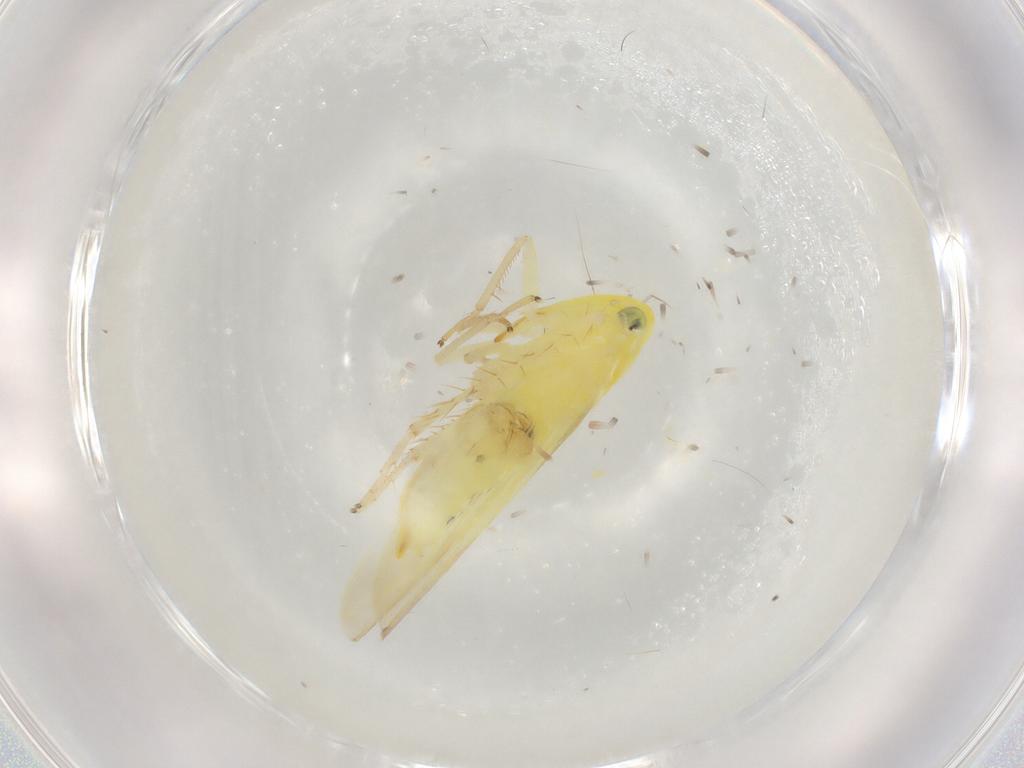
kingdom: Animalia
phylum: Arthropoda
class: Insecta
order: Hemiptera
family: Cicadellidae
